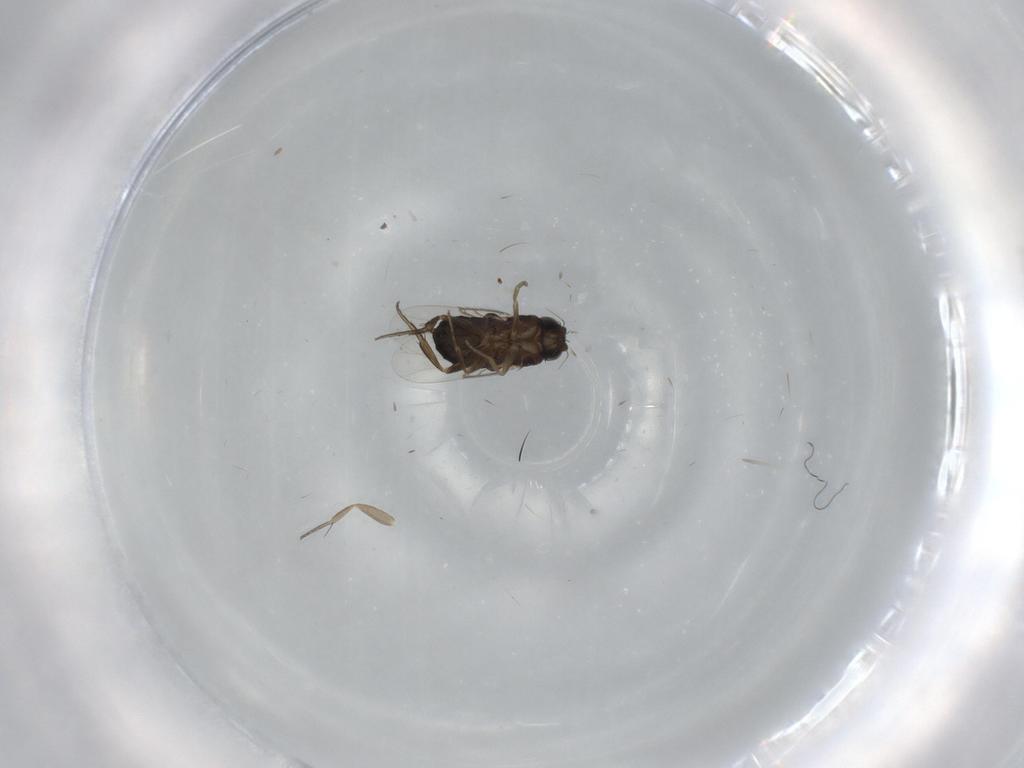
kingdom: Animalia
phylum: Arthropoda
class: Insecta
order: Diptera
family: Phoridae
